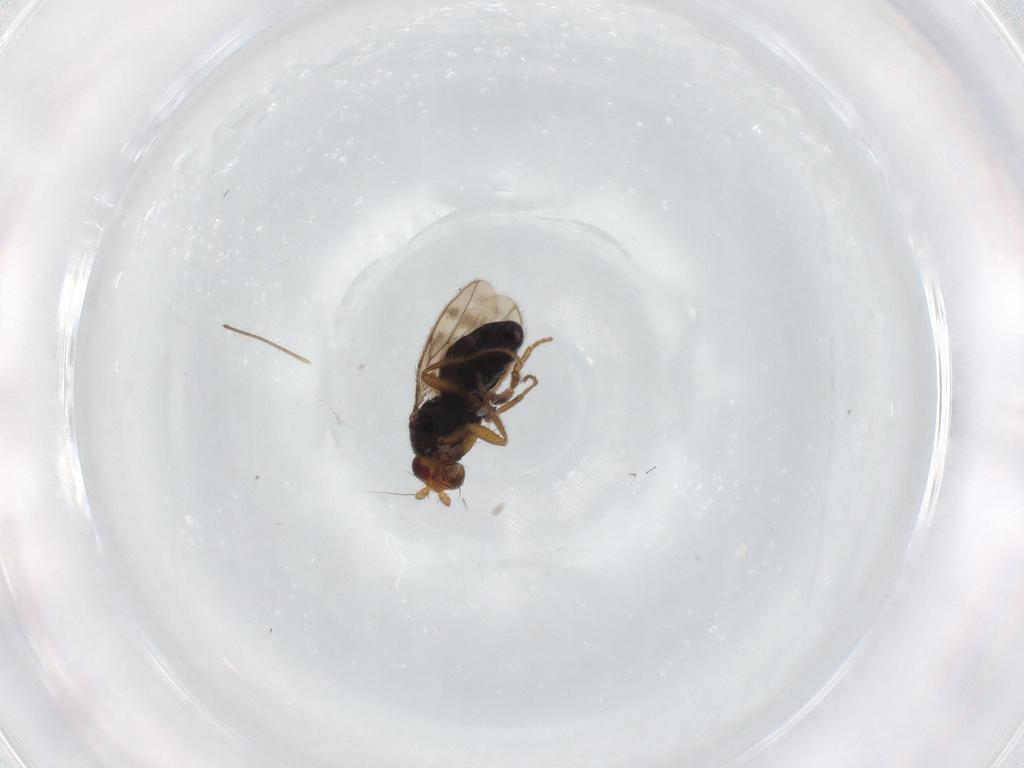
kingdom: Animalia
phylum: Arthropoda
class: Insecta
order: Diptera
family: Sphaeroceridae
